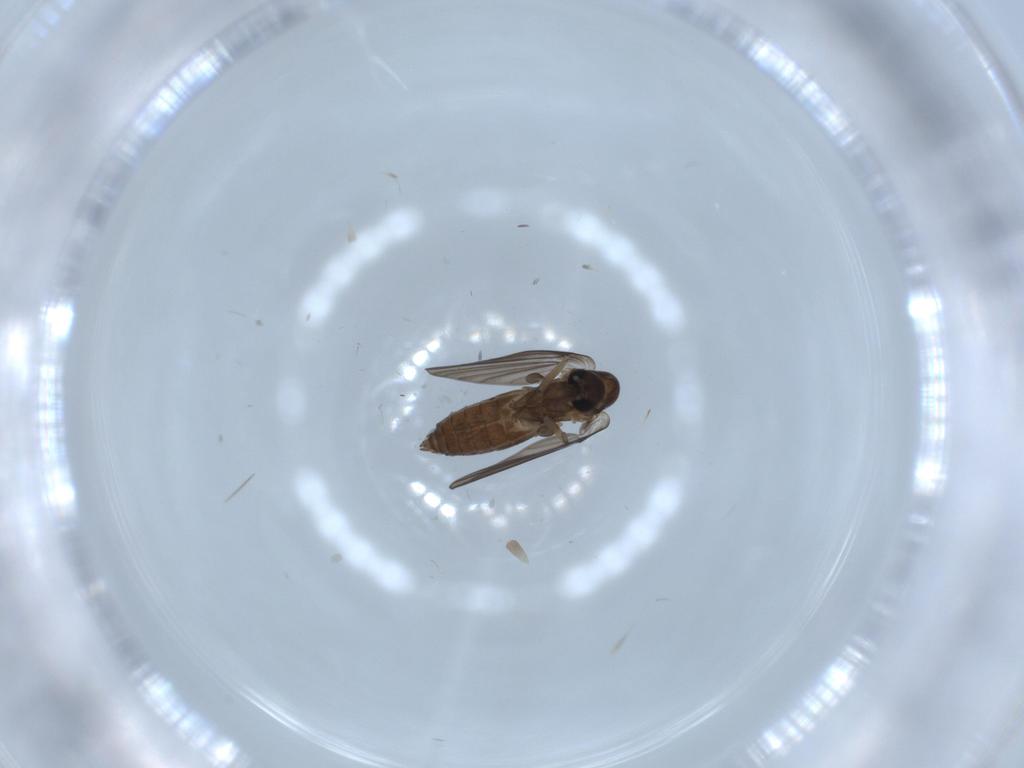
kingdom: Animalia
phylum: Arthropoda
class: Insecta
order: Diptera
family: Psychodidae
